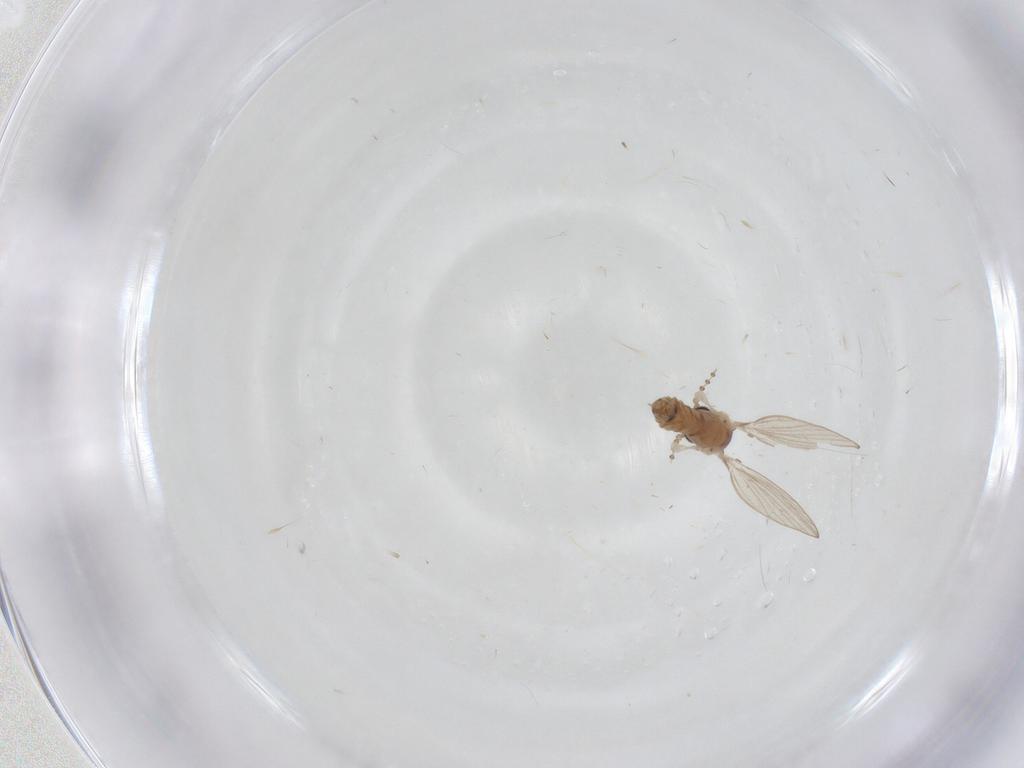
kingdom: Animalia
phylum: Arthropoda
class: Insecta
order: Diptera
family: Psychodidae
